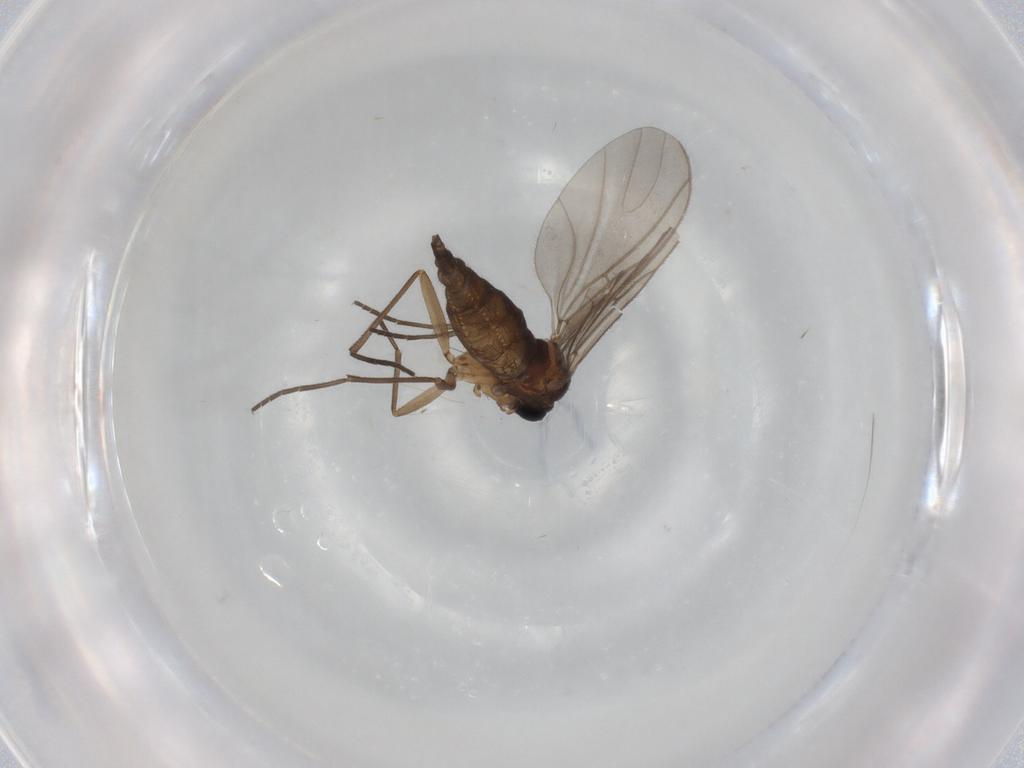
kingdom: Animalia
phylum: Arthropoda
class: Insecta
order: Diptera
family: Sciaridae
